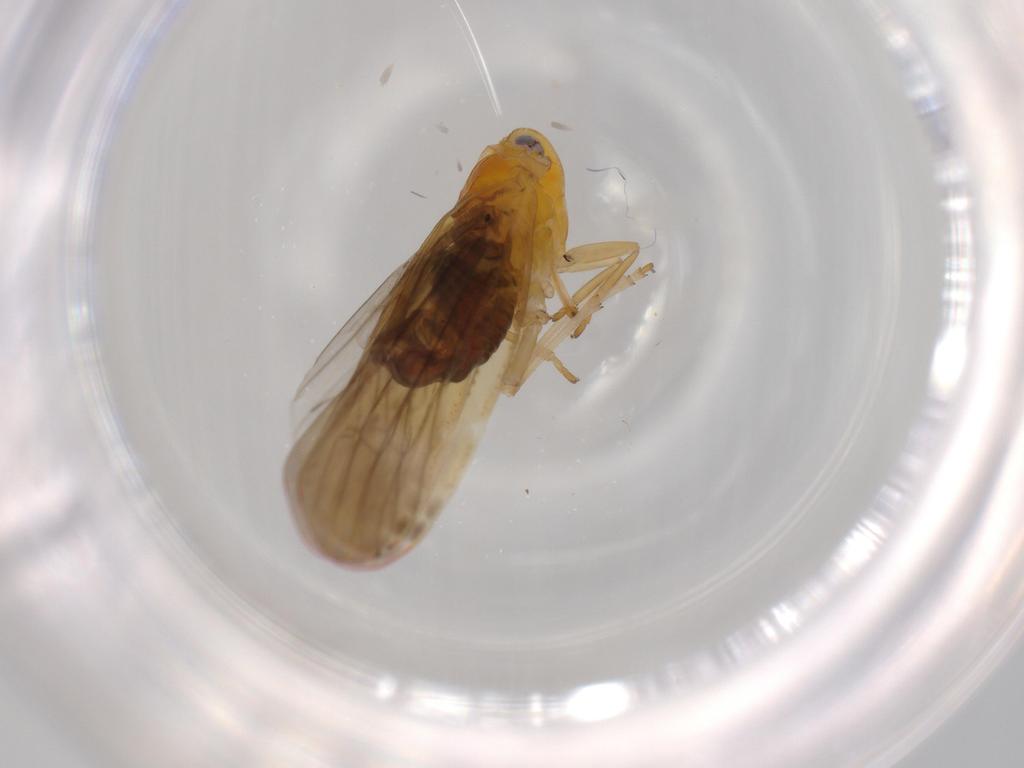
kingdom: Animalia
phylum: Arthropoda
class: Insecta
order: Hemiptera
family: Derbidae
